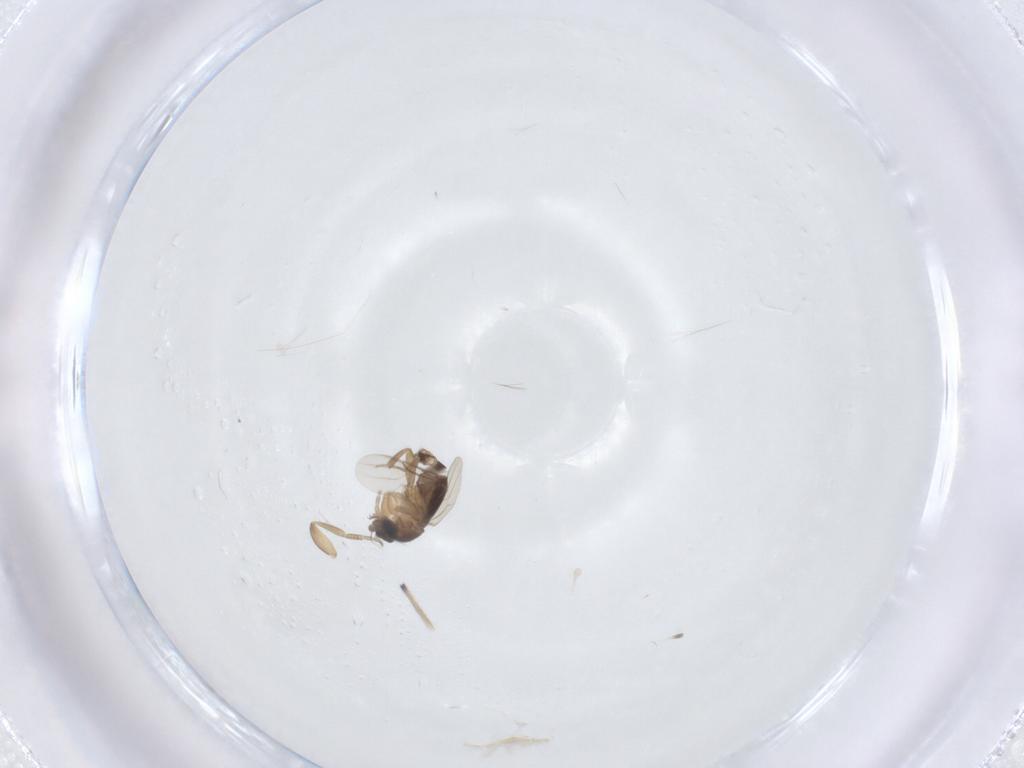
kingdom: Animalia
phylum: Arthropoda
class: Insecta
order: Diptera
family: Phoridae
